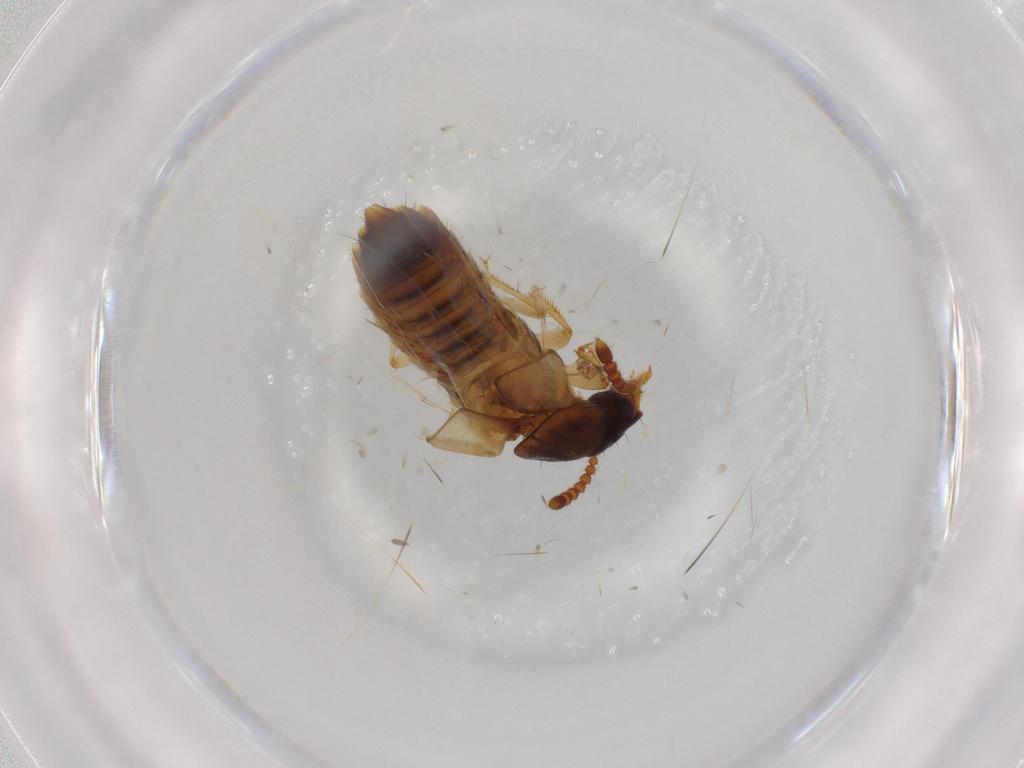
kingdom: Animalia
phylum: Arthropoda
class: Insecta
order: Coleoptera
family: Staphylinidae
